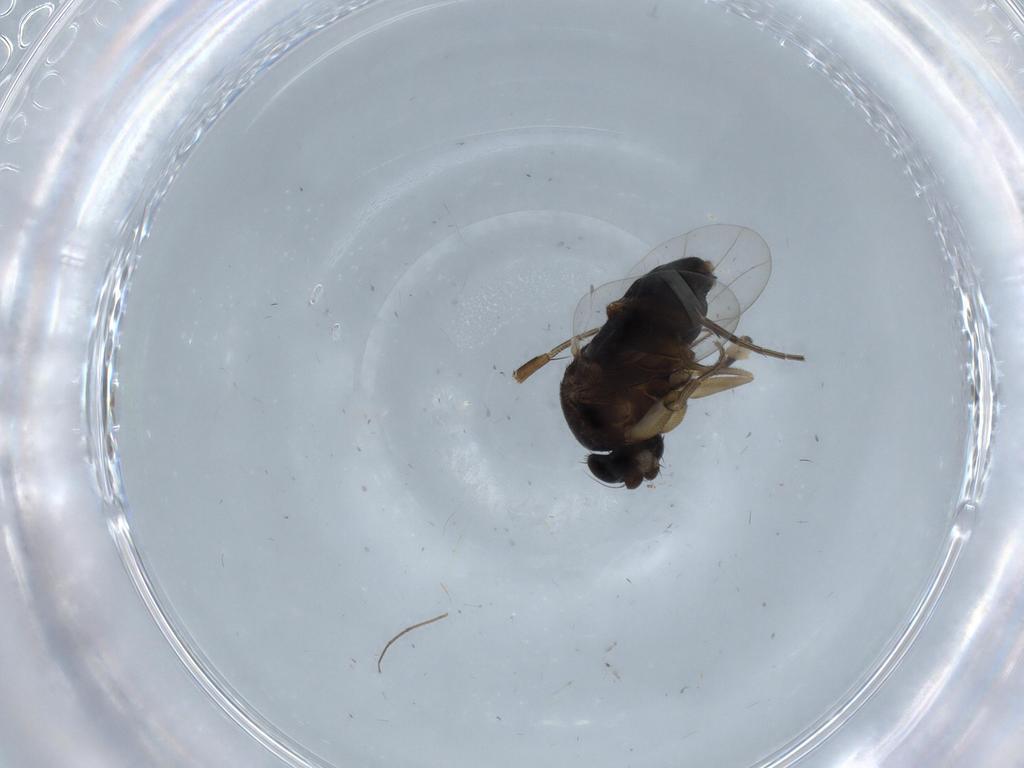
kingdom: Animalia
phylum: Arthropoda
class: Insecta
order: Diptera
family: Phoridae
